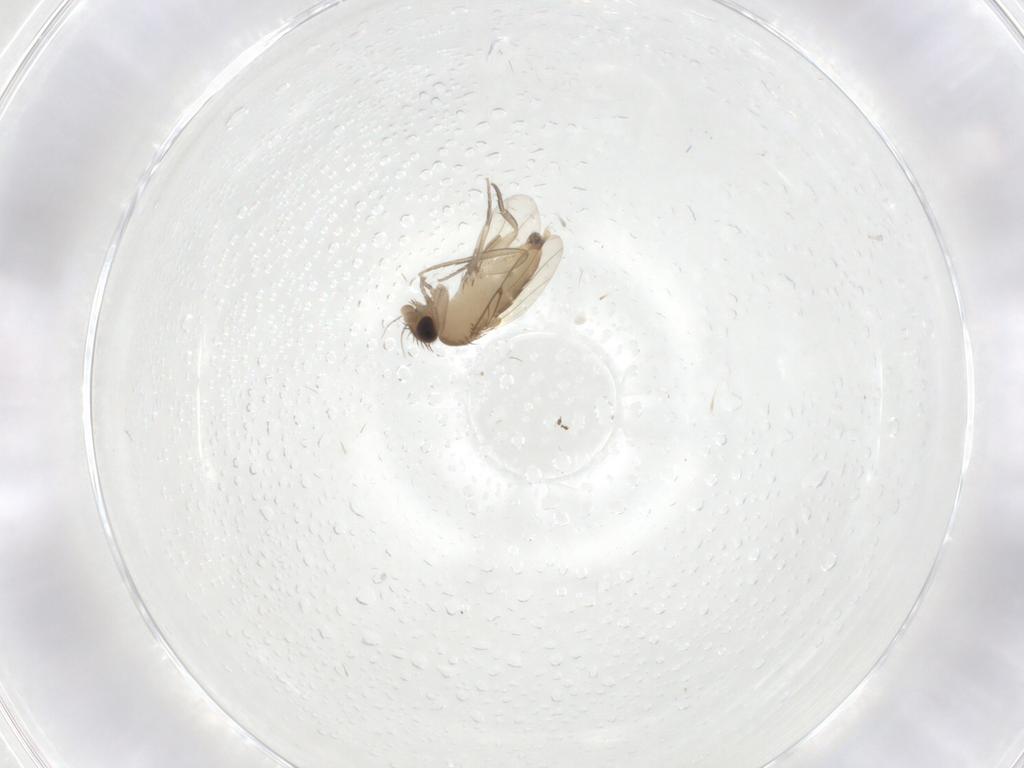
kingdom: Animalia
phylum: Arthropoda
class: Insecta
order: Diptera
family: Phoridae
